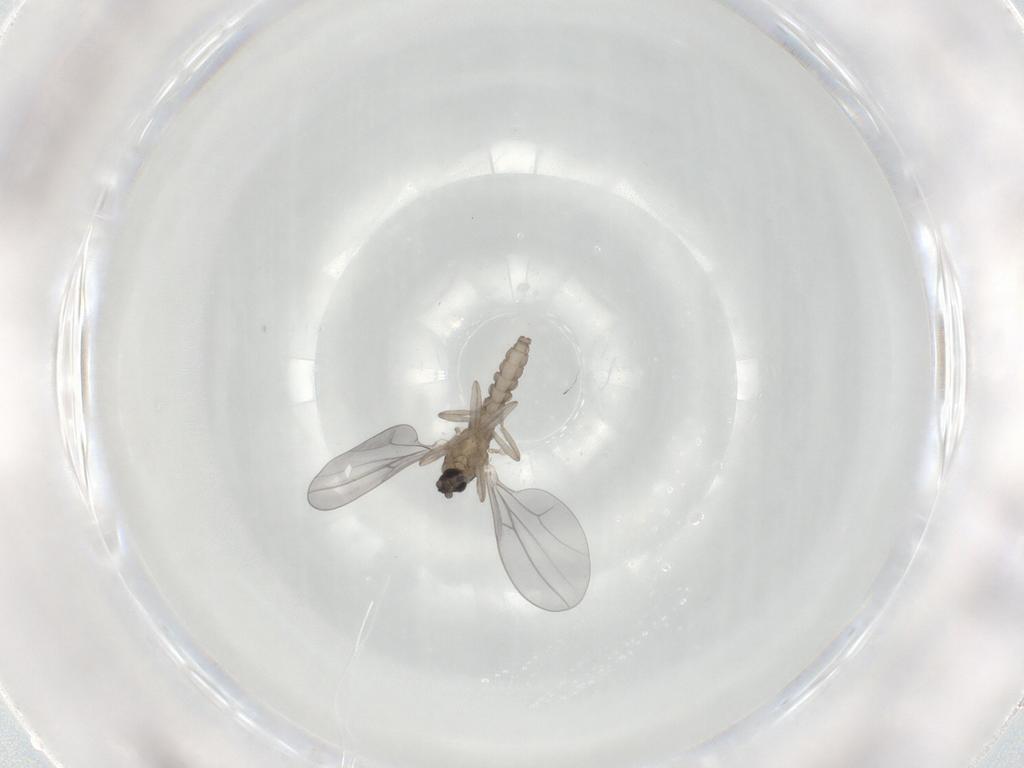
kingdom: Animalia
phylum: Arthropoda
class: Insecta
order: Diptera
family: Cecidomyiidae
